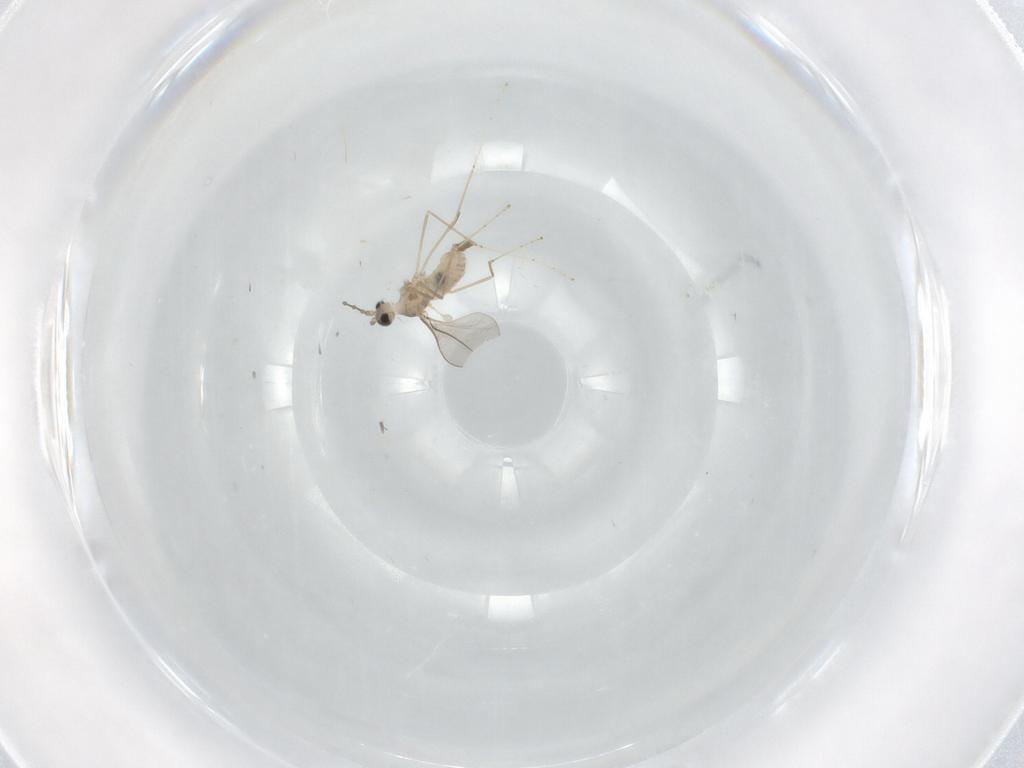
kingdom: Animalia
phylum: Arthropoda
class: Insecta
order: Diptera
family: Cecidomyiidae
